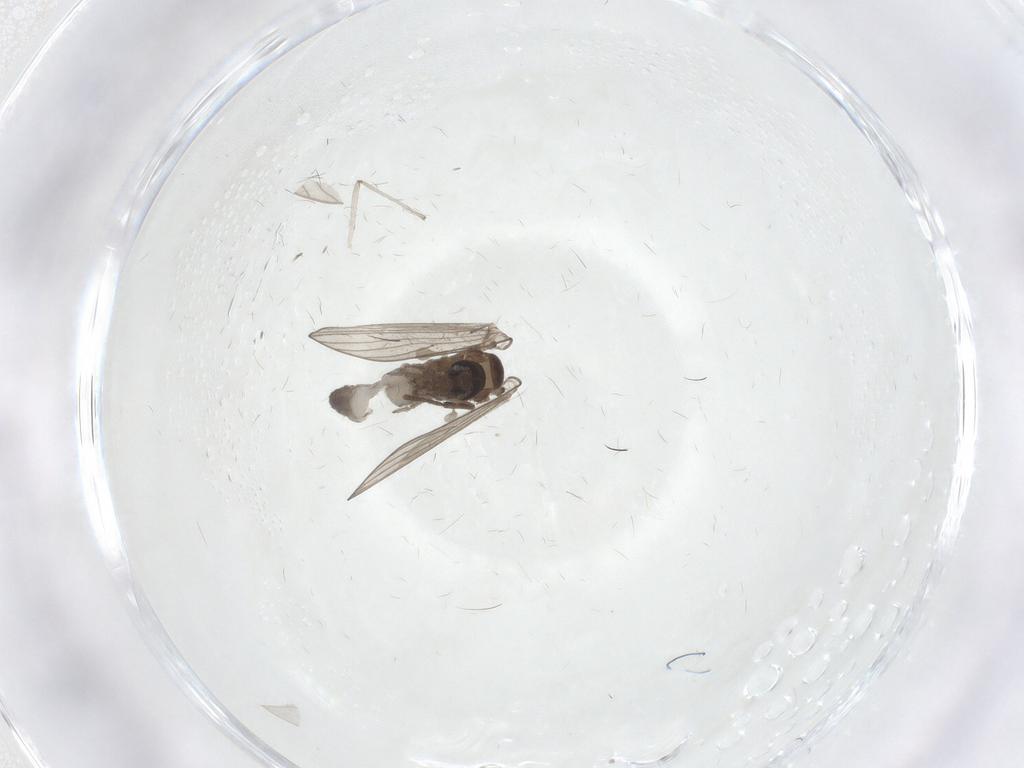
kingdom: Animalia
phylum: Arthropoda
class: Insecta
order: Diptera
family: Chironomidae
